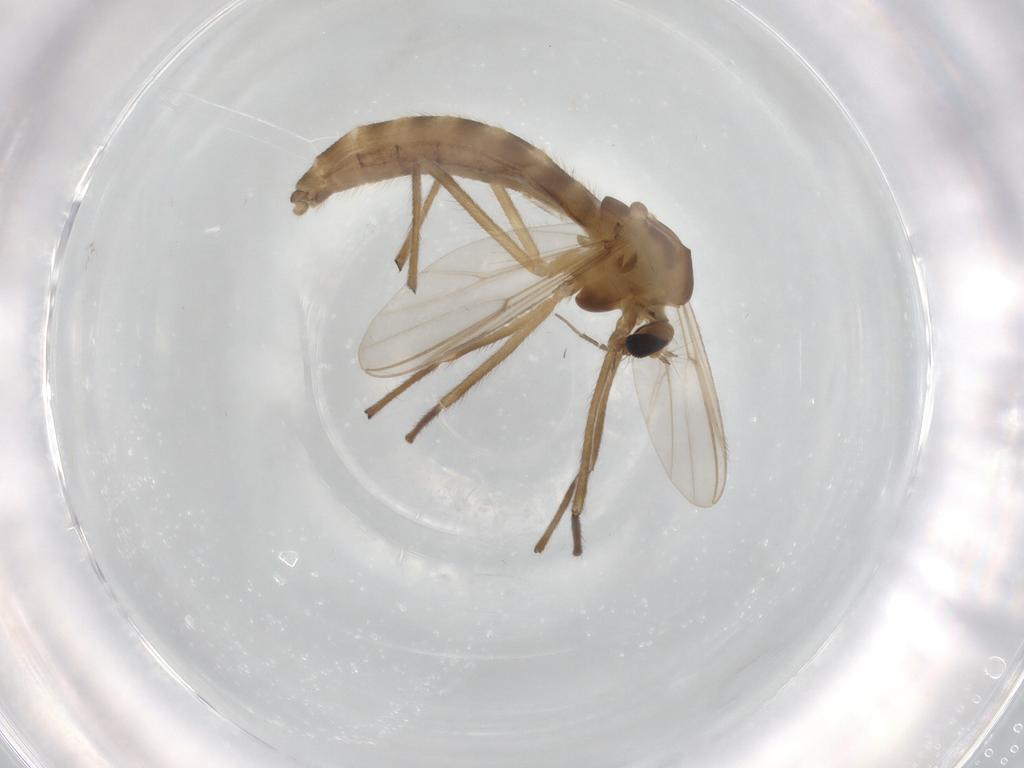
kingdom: Animalia
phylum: Arthropoda
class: Insecta
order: Diptera
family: Chironomidae
